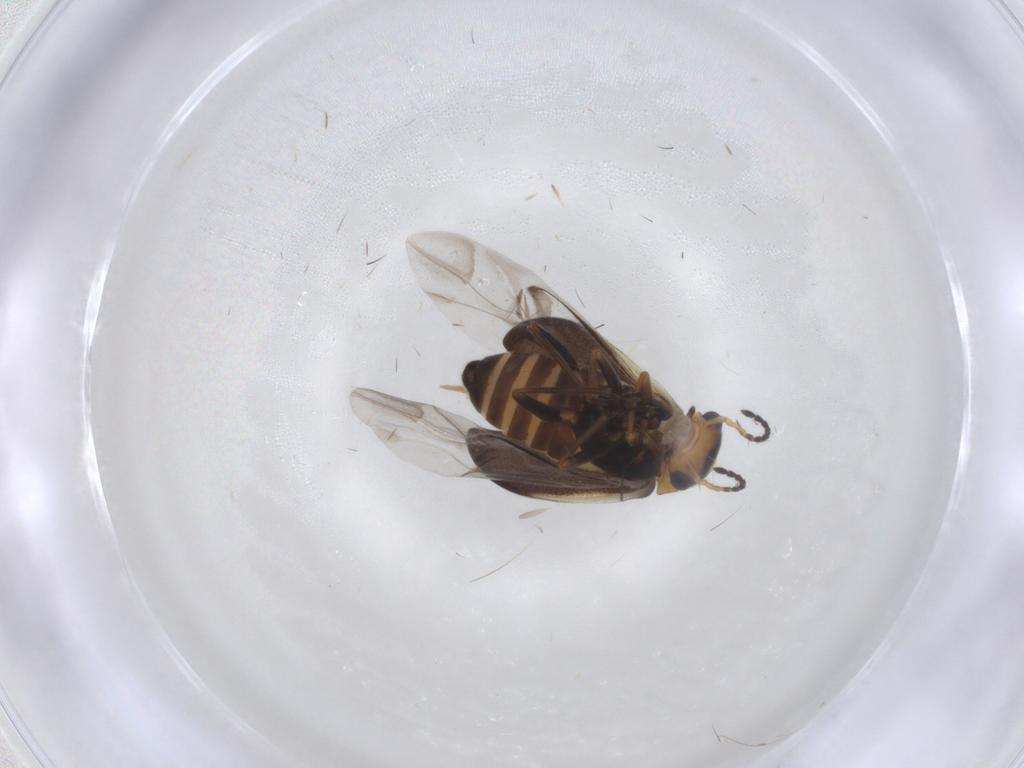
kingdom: Animalia
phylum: Arthropoda
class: Insecta
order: Coleoptera
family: Melyridae
